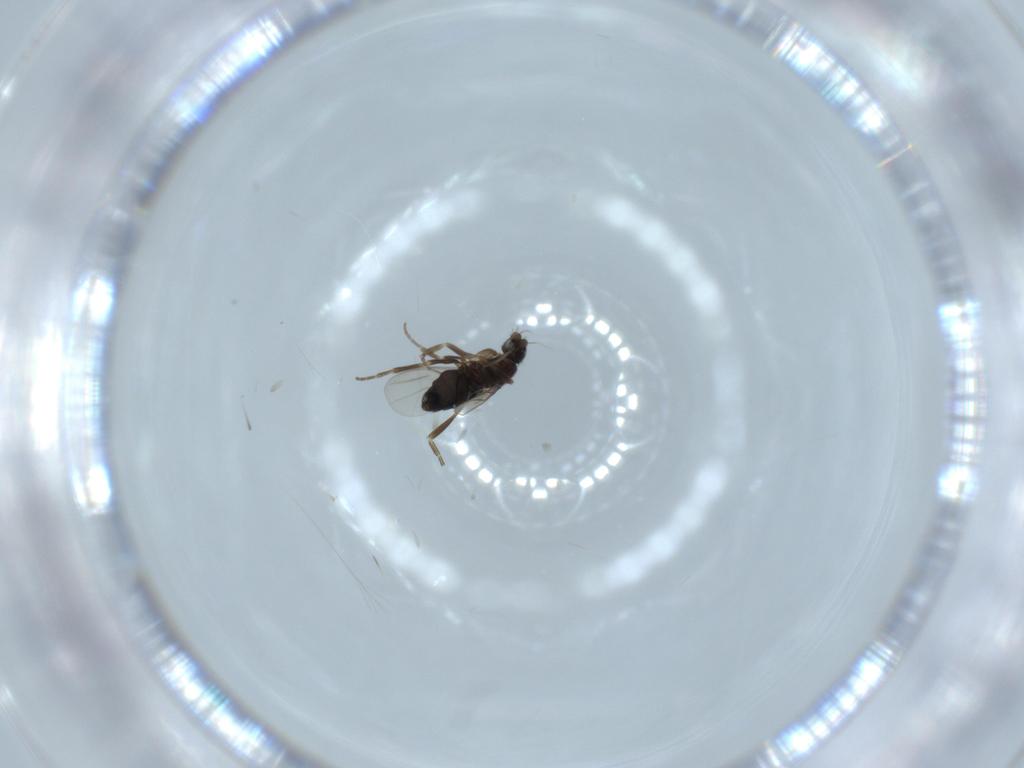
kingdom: Animalia
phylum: Arthropoda
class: Insecta
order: Diptera
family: Phoridae
